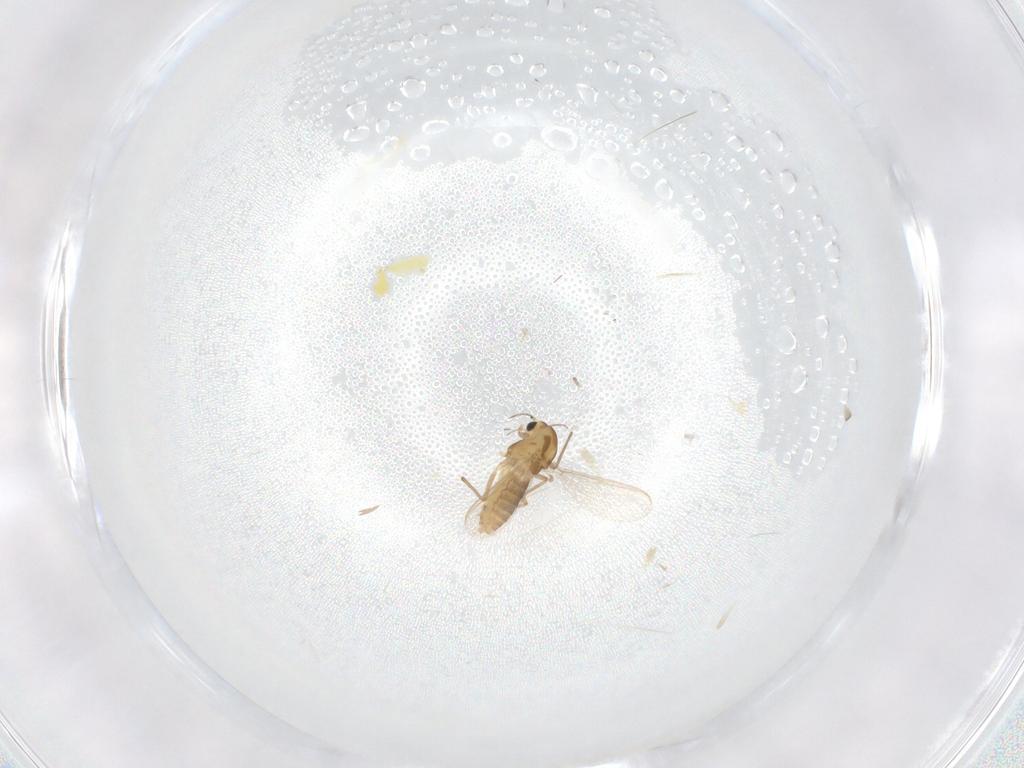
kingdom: Animalia
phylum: Arthropoda
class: Insecta
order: Diptera
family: Chironomidae
